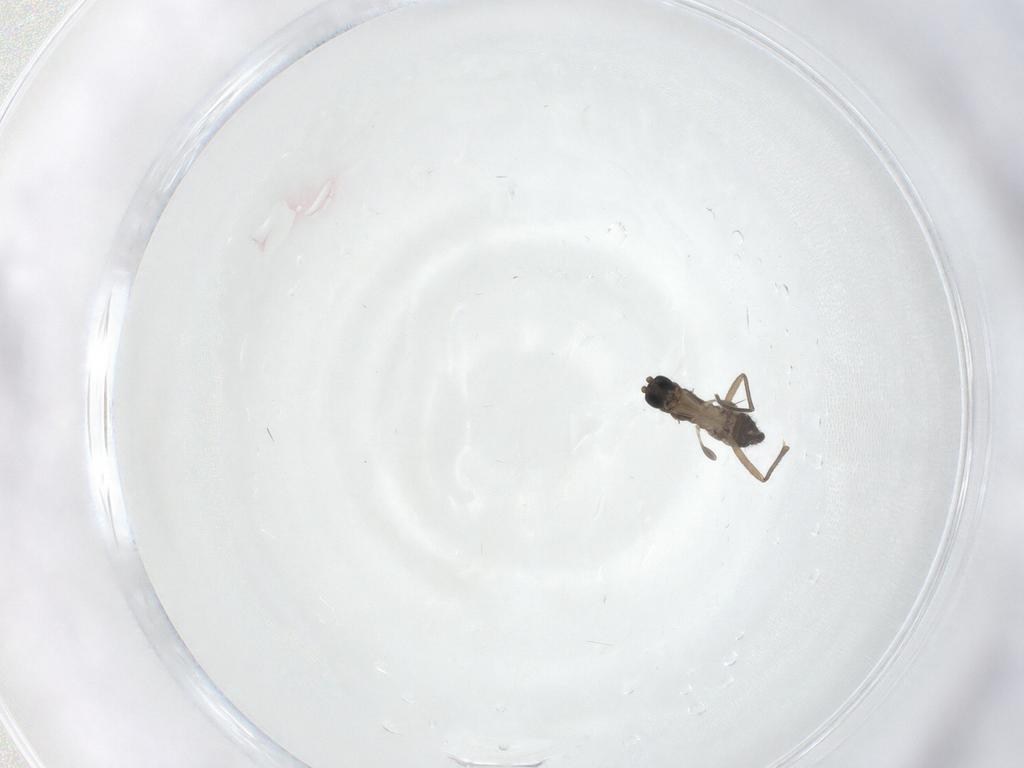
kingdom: Animalia
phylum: Arthropoda
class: Insecta
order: Diptera
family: Sciaridae
